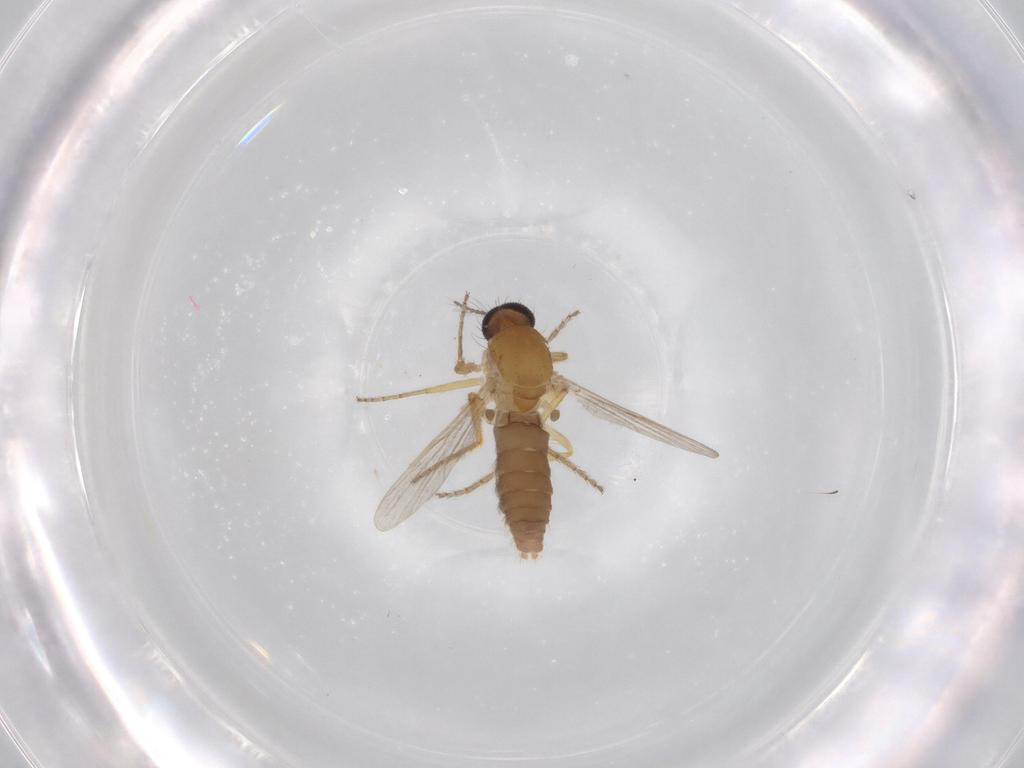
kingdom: Animalia
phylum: Arthropoda
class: Insecta
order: Diptera
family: Ceratopogonidae
